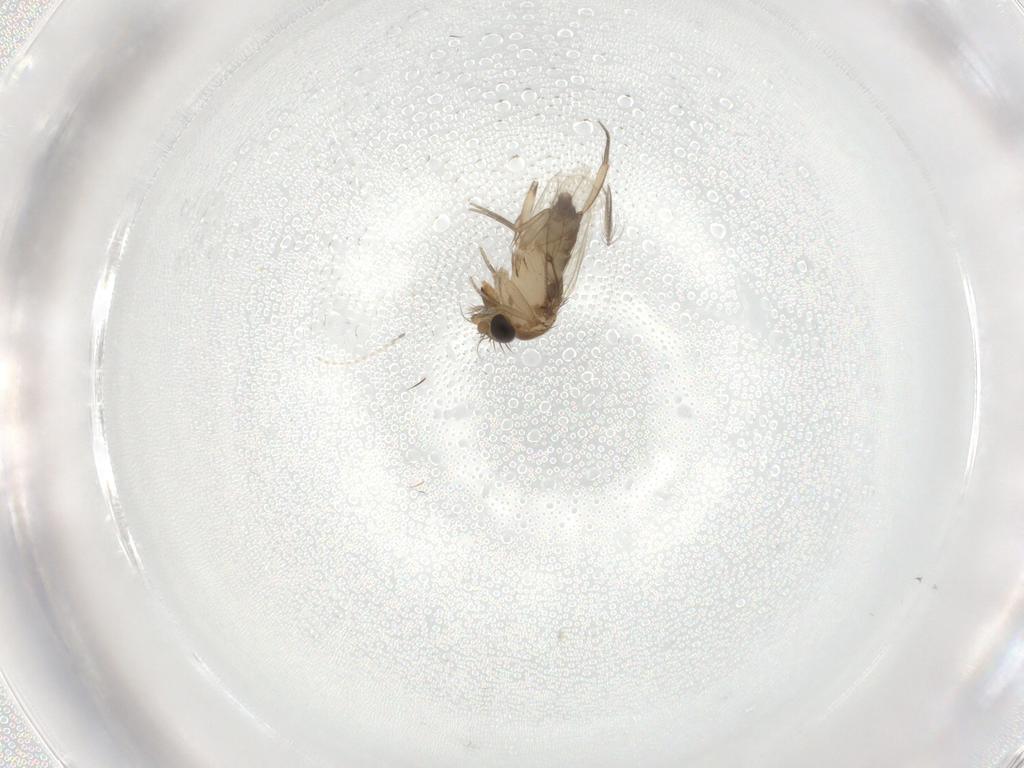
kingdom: Animalia
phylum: Arthropoda
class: Insecta
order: Diptera
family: Phoridae
